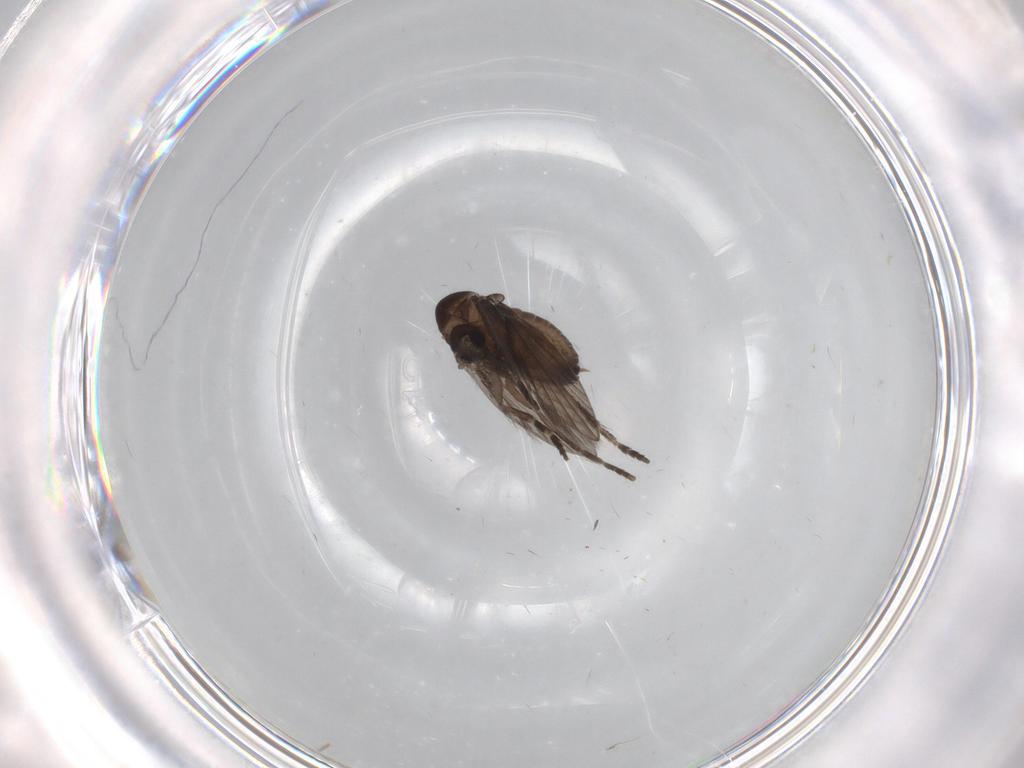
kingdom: Animalia
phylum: Arthropoda
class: Insecta
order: Diptera
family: Psychodidae
